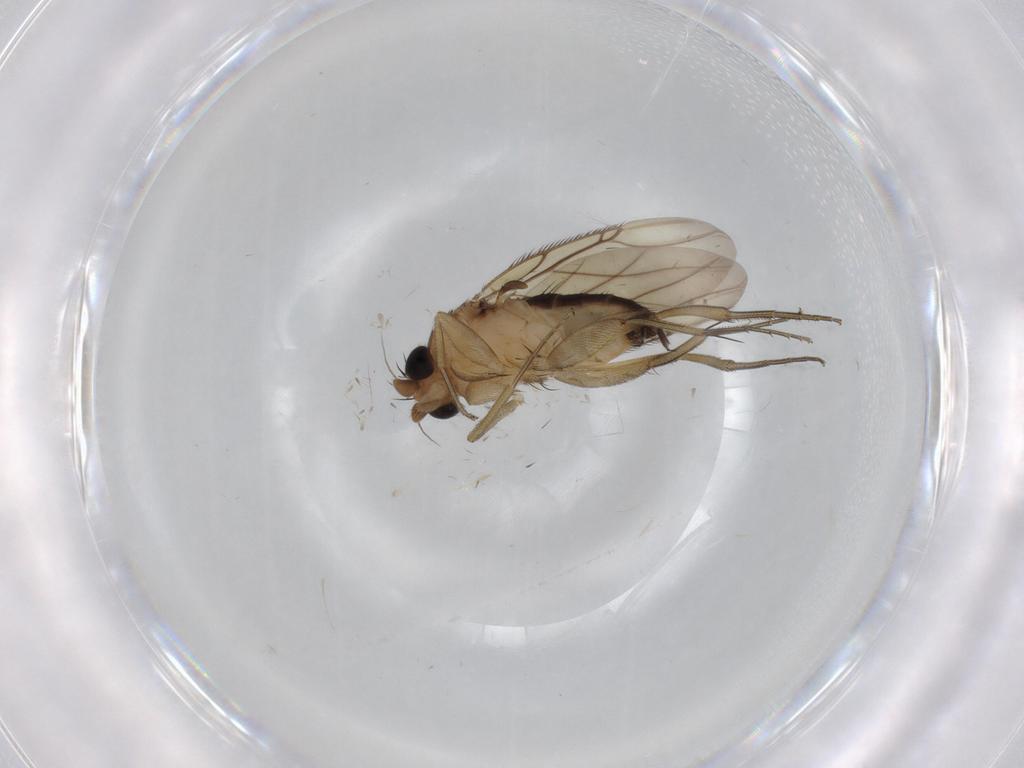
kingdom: Animalia
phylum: Arthropoda
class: Insecta
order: Diptera
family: Phoridae
